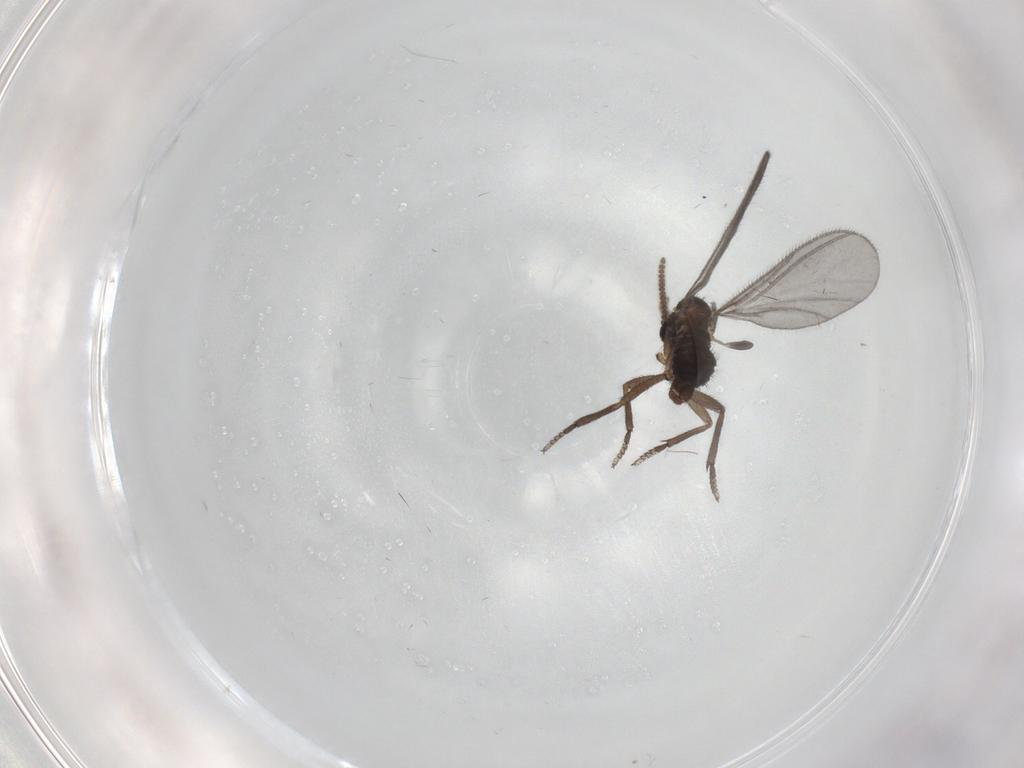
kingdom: Animalia
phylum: Arthropoda
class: Insecta
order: Diptera
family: Sciaridae
